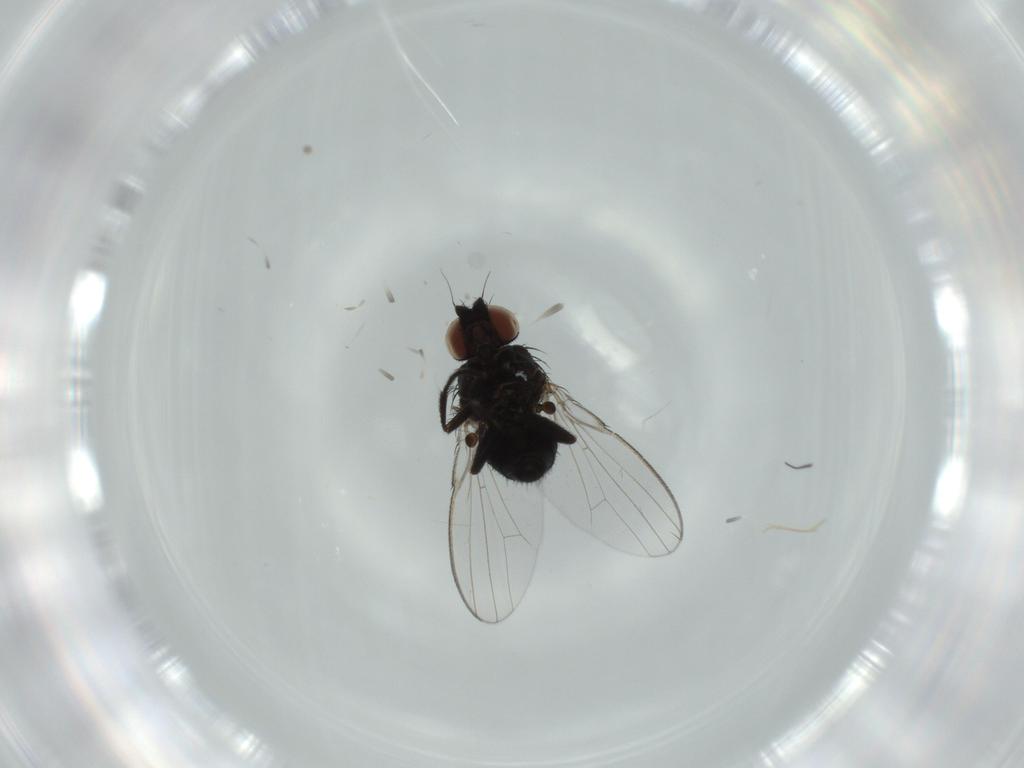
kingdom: Animalia
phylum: Arthropoda
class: Insecta
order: Diptera
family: Milichiidae
